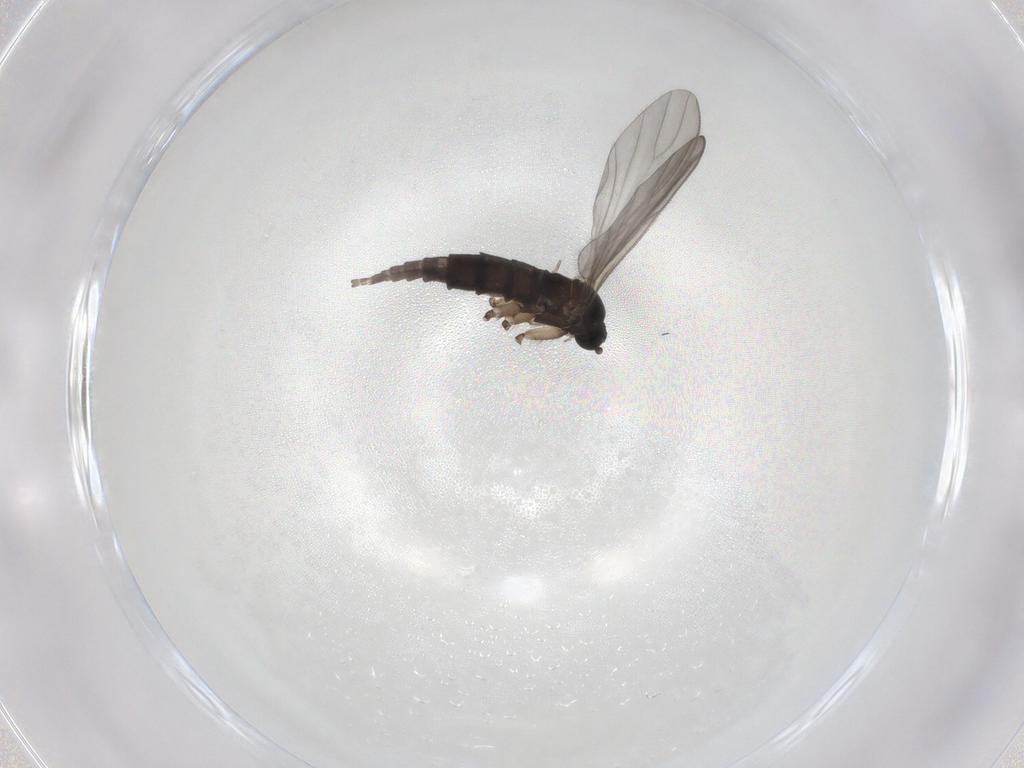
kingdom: Animalia
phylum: Arthropoda
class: Insecta
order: Diptera
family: Sciaridae
